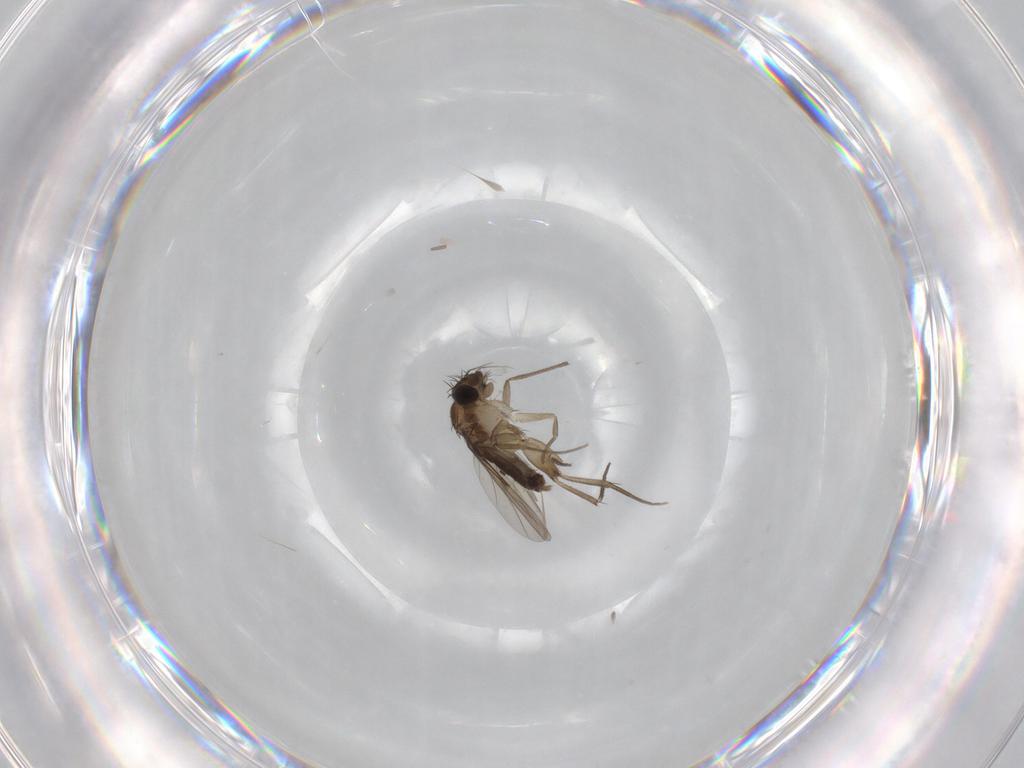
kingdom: Animalia
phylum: Arthropoda
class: Insecta
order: Diptera
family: Phoridae
